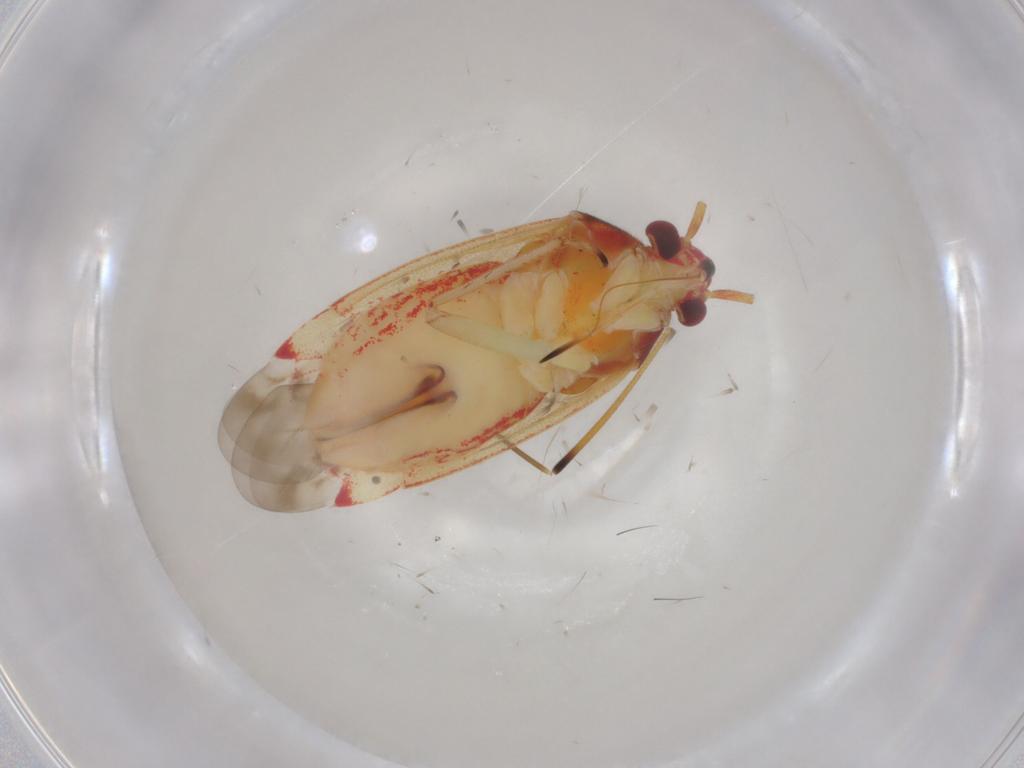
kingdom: Animalia
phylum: Arthropoda
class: Insecta
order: Hemiptera
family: Miridae
